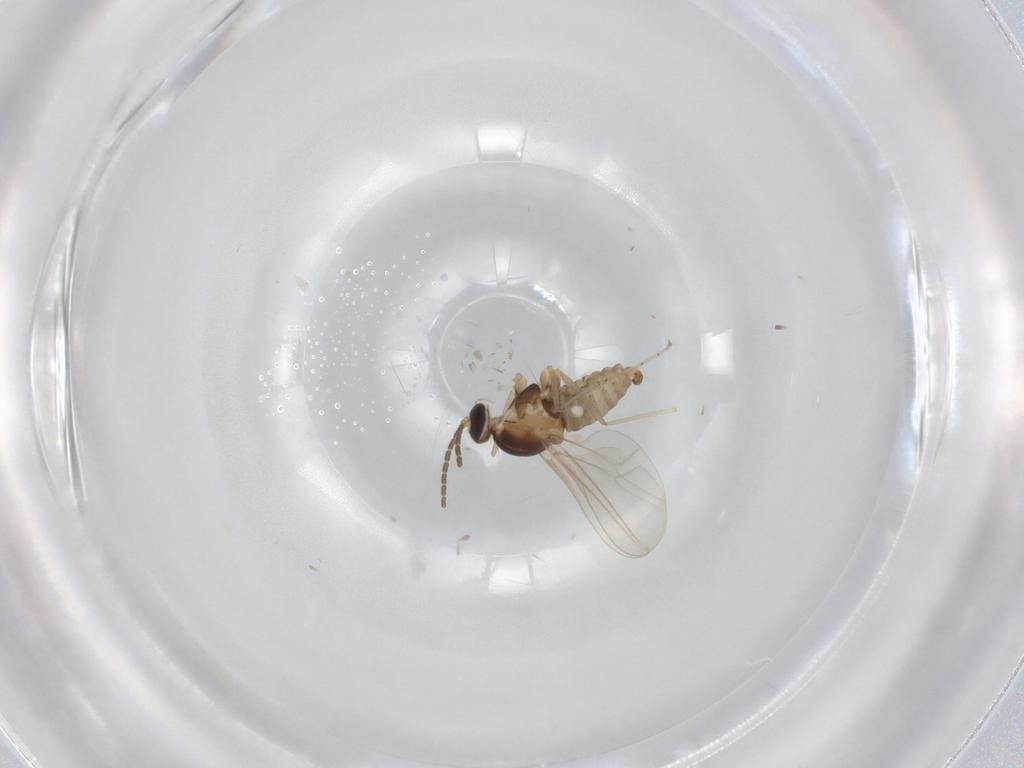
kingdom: Animalia
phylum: Arthropoda
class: Insecta
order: Diptera
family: Cecidomyiidae
